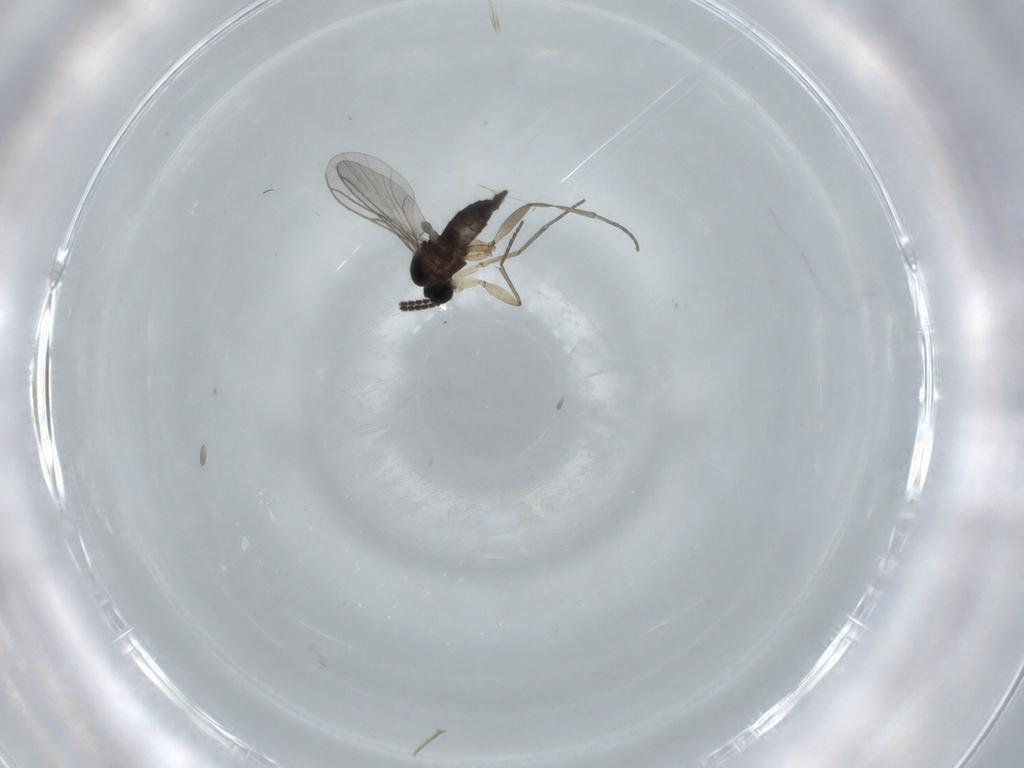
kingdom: Animalia
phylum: Arthropoda
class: Insecta
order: Diptera
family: Sciaridae
